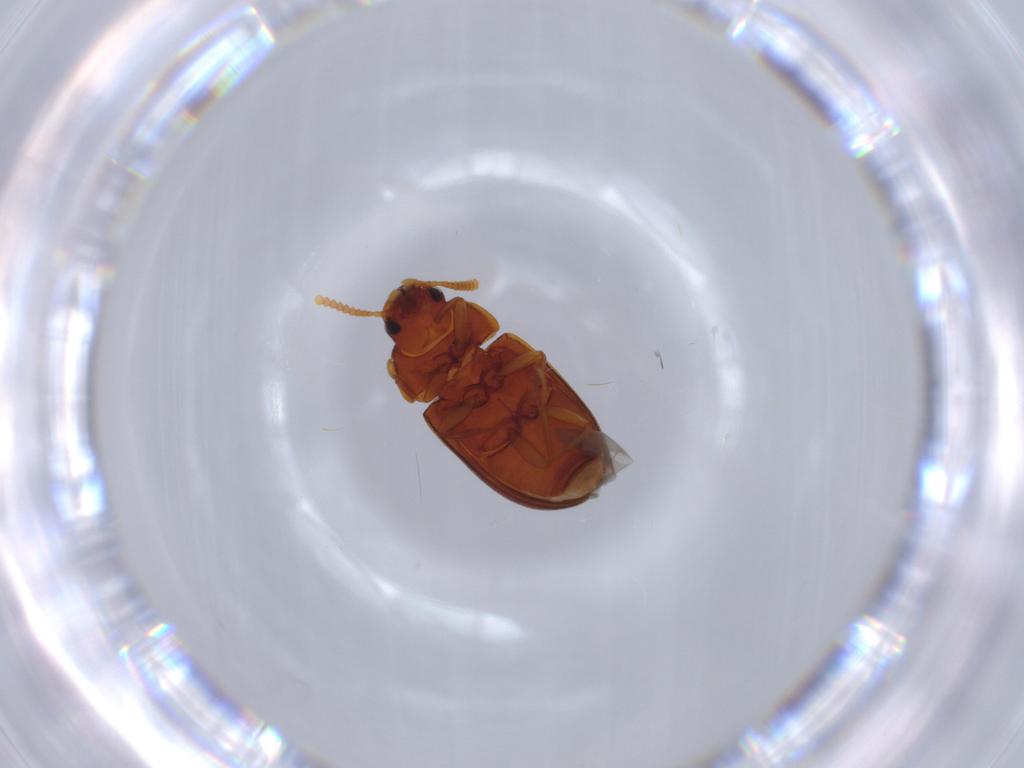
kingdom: Animalia
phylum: Arthropoda
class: Insecta
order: Coleoptera
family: Tenebrionidae
